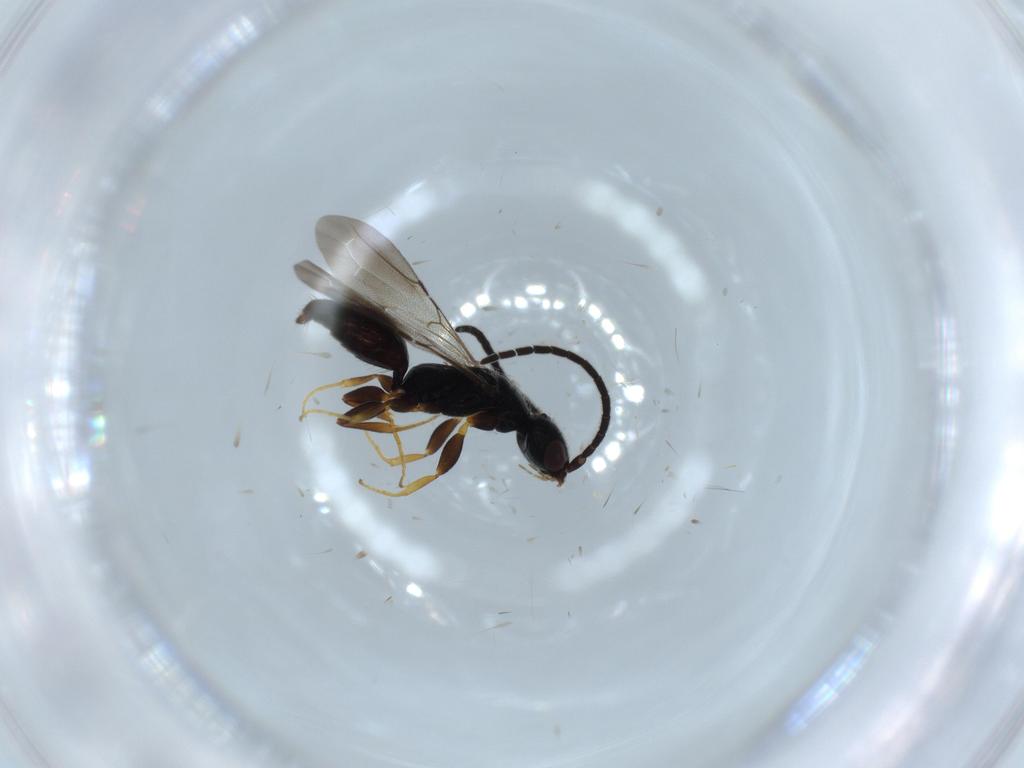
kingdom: Animalia
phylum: Arthropoda
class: Insecta
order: Hymenoptera
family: Bethylidae
